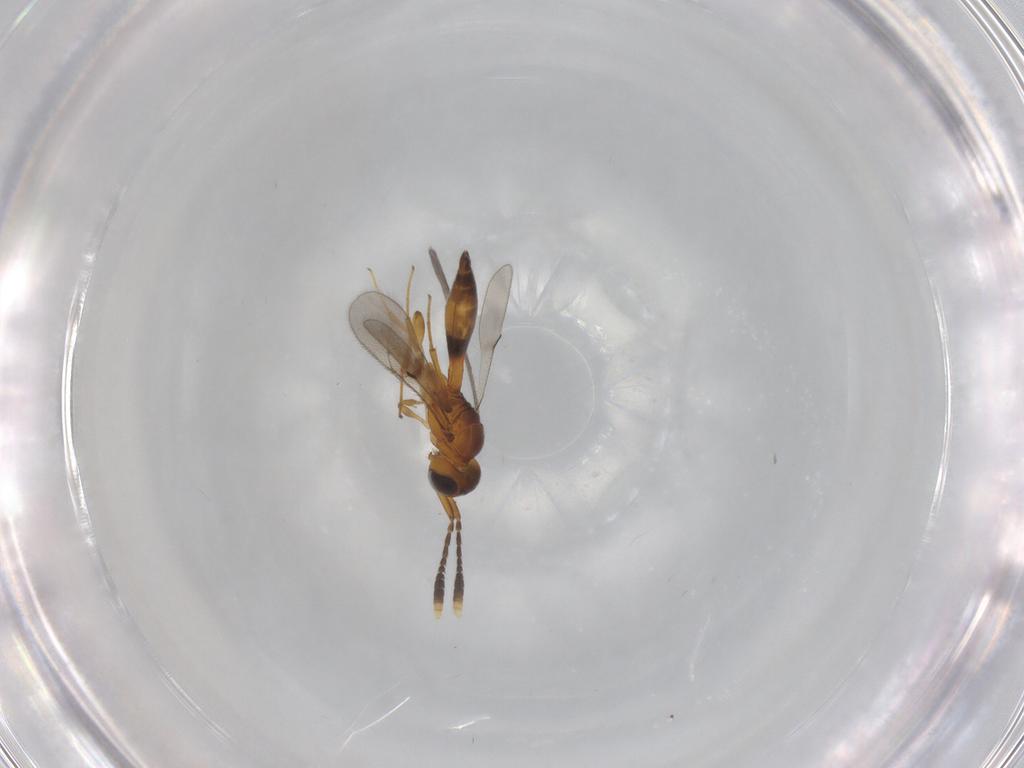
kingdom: Animalia
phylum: Arthropoda
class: Insecta
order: Hymenoptera
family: Scelionidae
